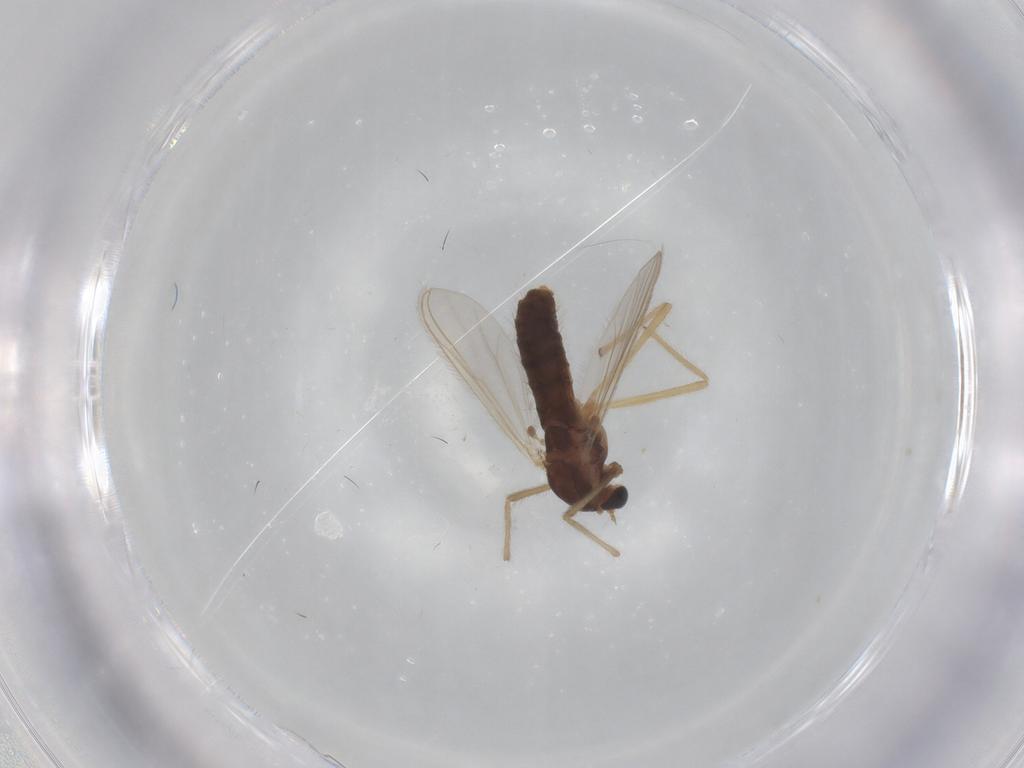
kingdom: Animalia
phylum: Arthropoda
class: Insecta
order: Diptera
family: Chironomidae
